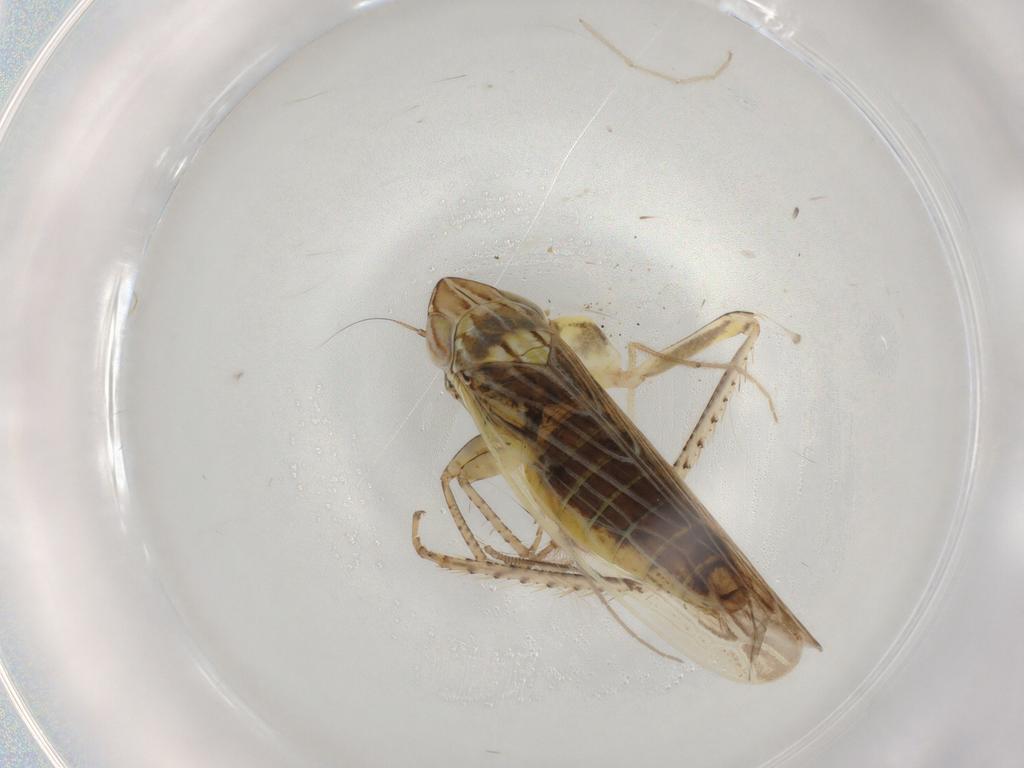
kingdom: Animalia
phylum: Arthropoda
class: Insecta
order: Hemiptera
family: Cicadellidae
